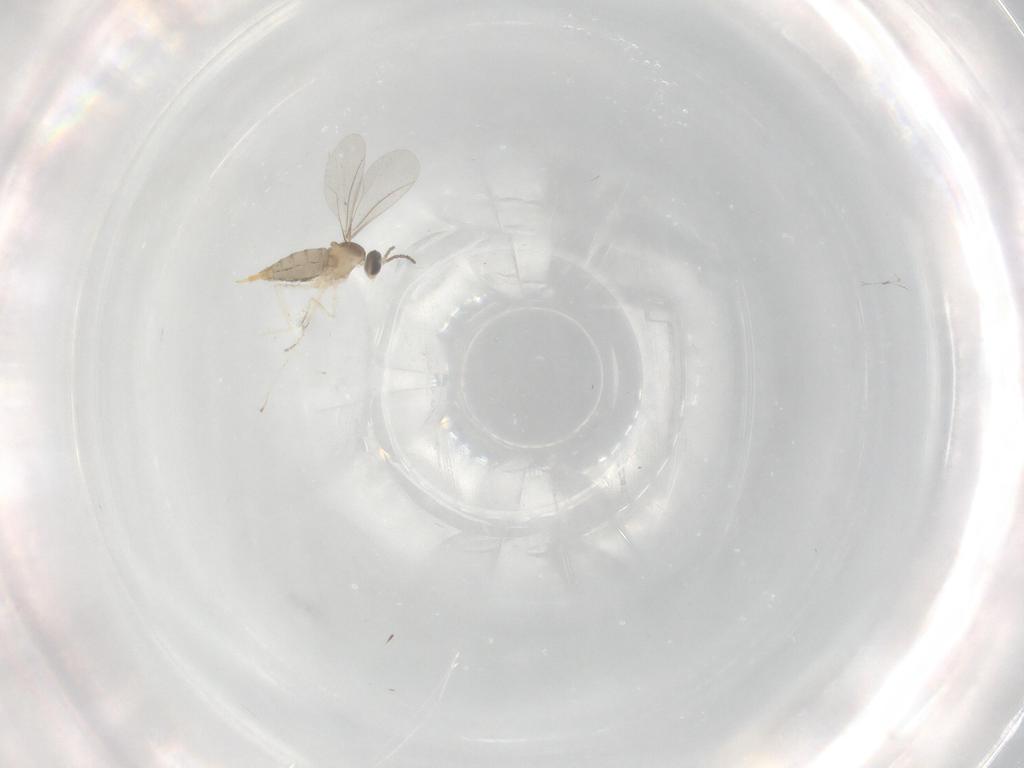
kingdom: Animalia
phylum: Arthropoda
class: Insecta
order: Diptera
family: Cecidomyiidae
